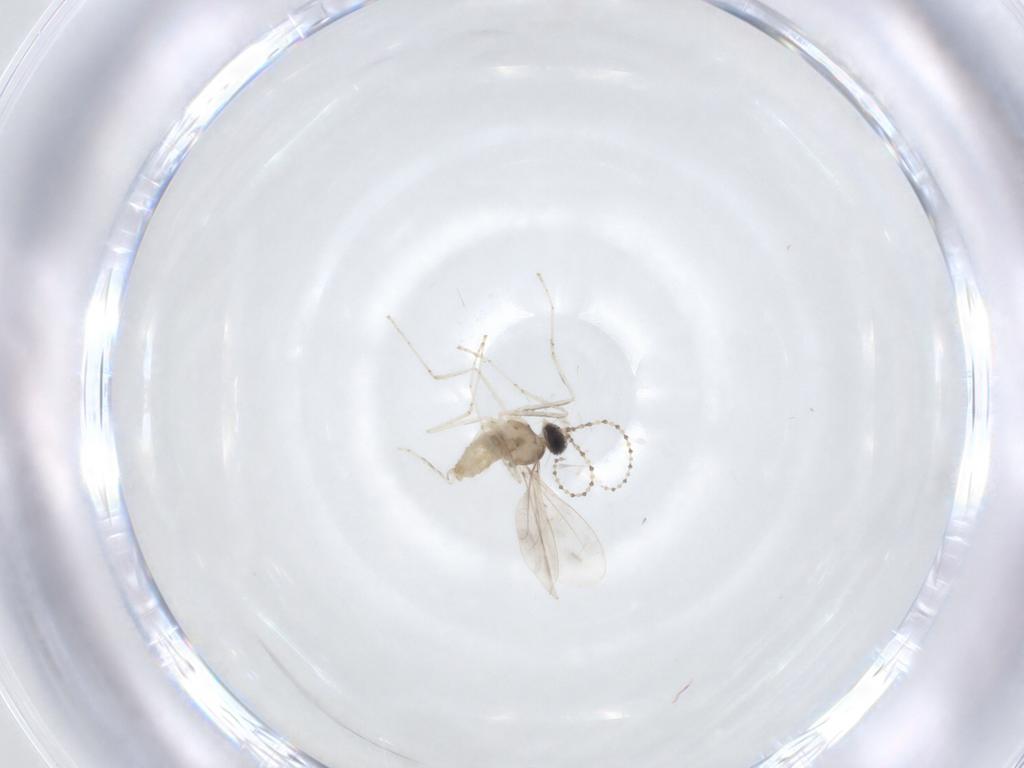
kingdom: Animalia
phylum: Arthropoda
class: Insecta
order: Diptera
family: Cecidomyiidae
